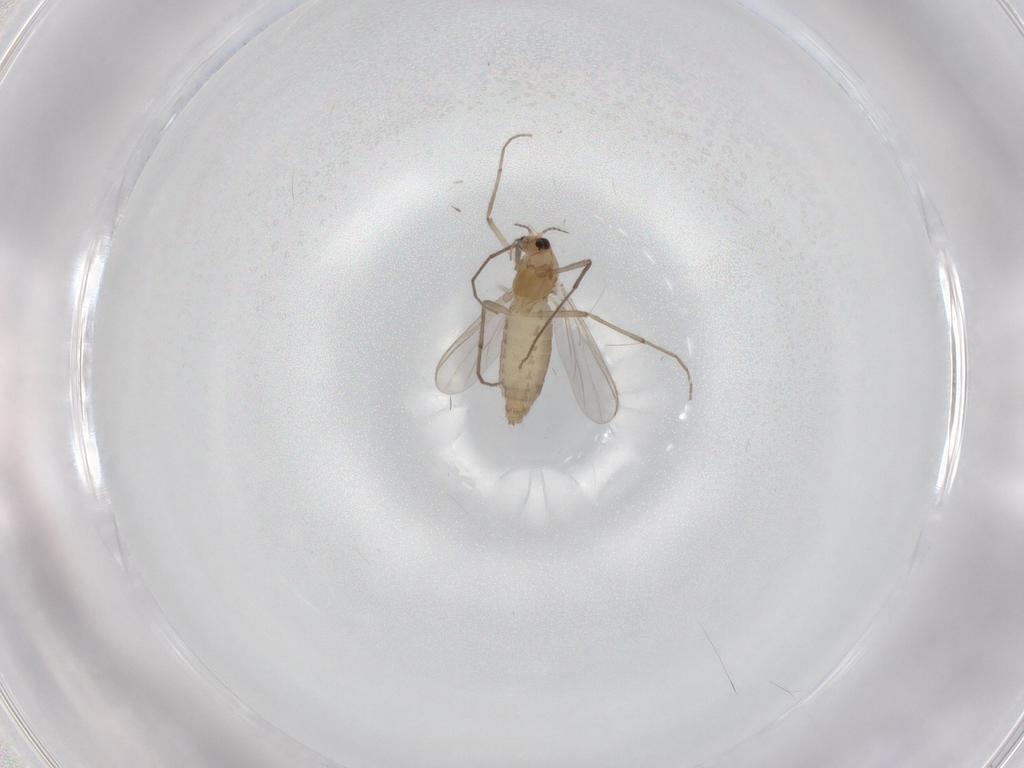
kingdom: Animalia
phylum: Arthropoda
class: Insecta
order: Diptera
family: Chironomidae
